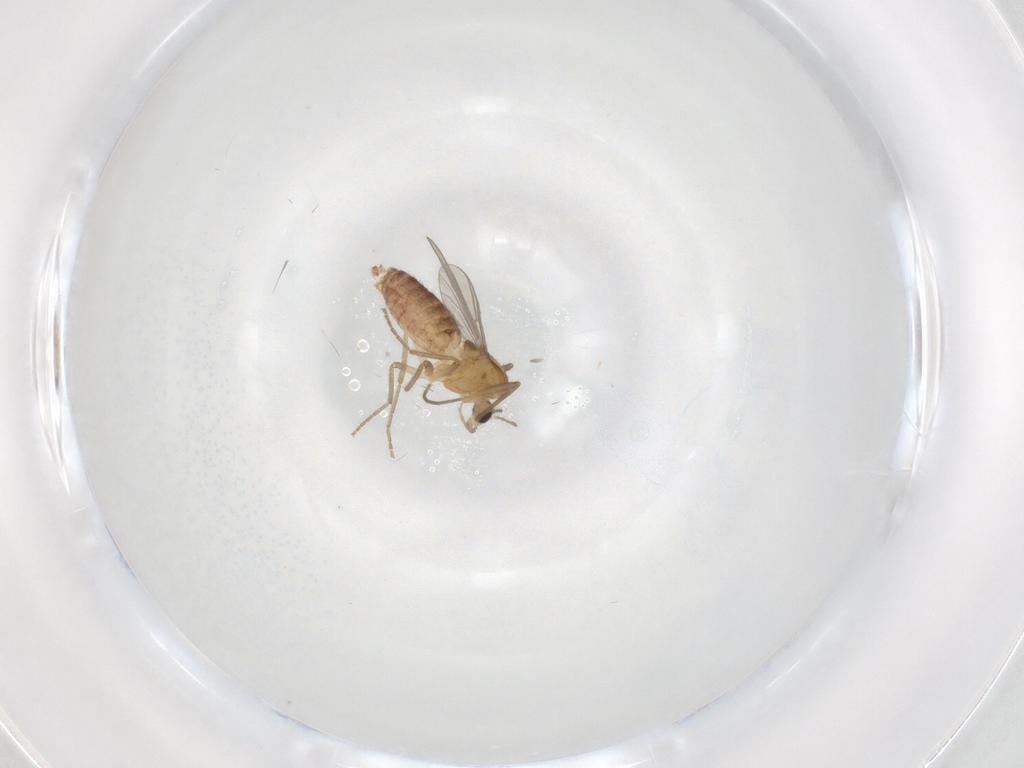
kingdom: Animalia
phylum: Arthropoda
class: Insecta
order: Diptera
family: Chironomidae
